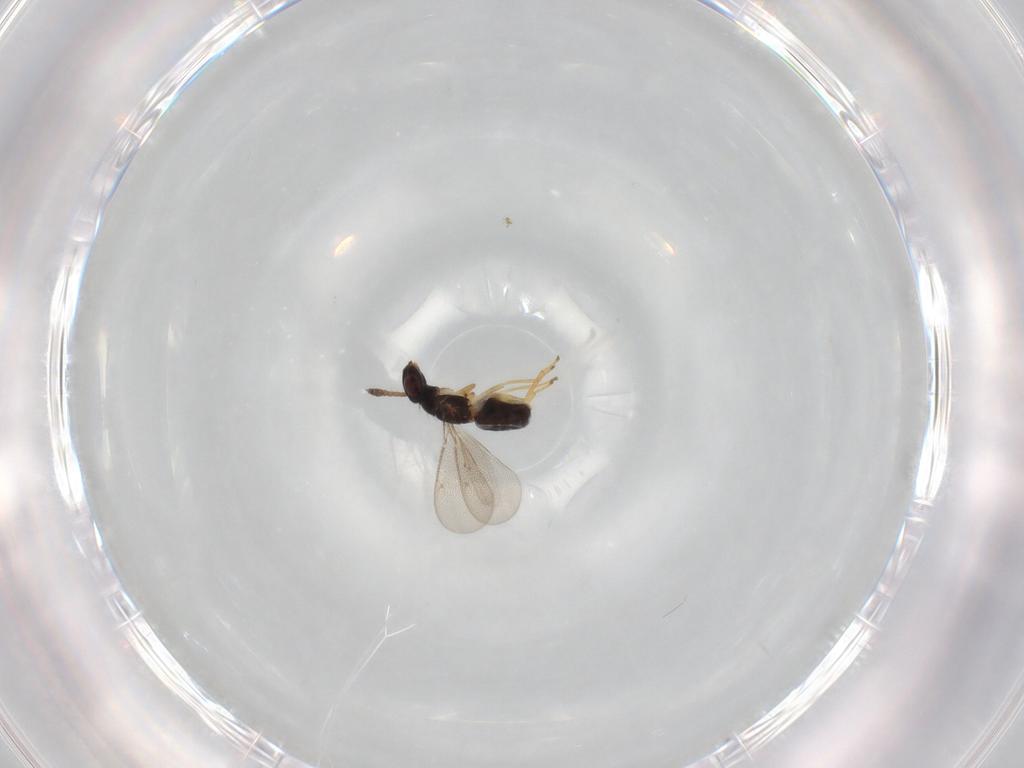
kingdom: Animalia
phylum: Arthropoda
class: Insecta
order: Hymenoptera
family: Eulophidae
